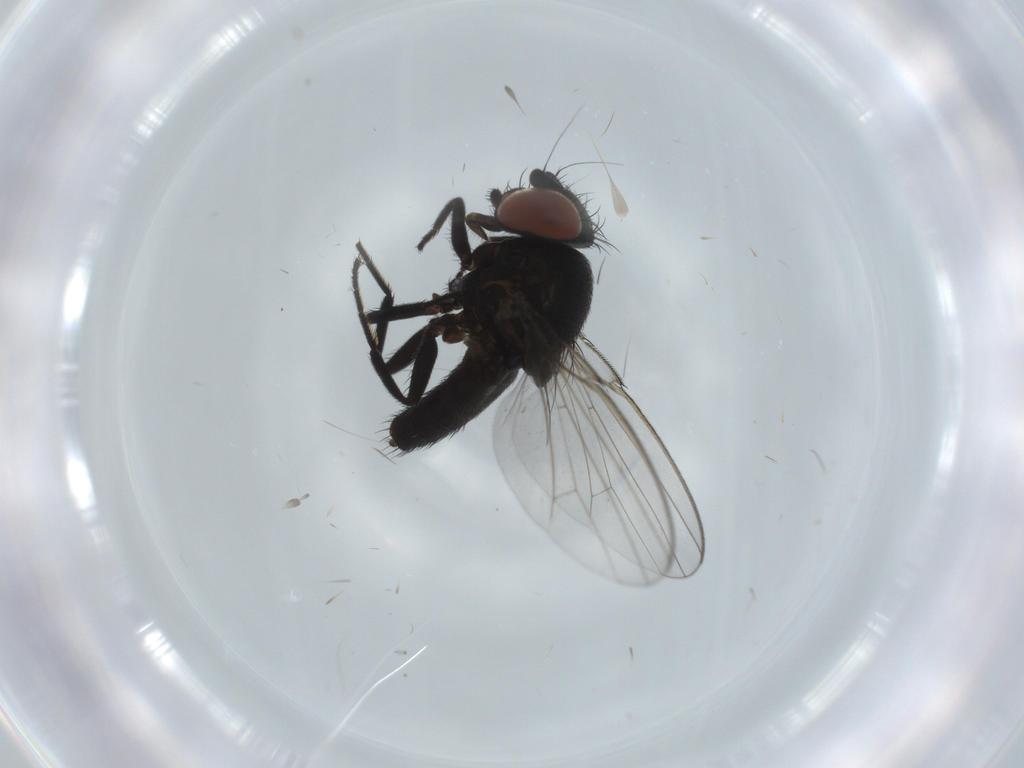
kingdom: Animalia
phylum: Arthropoda
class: Insecta
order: Diptera
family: Milichiidae
